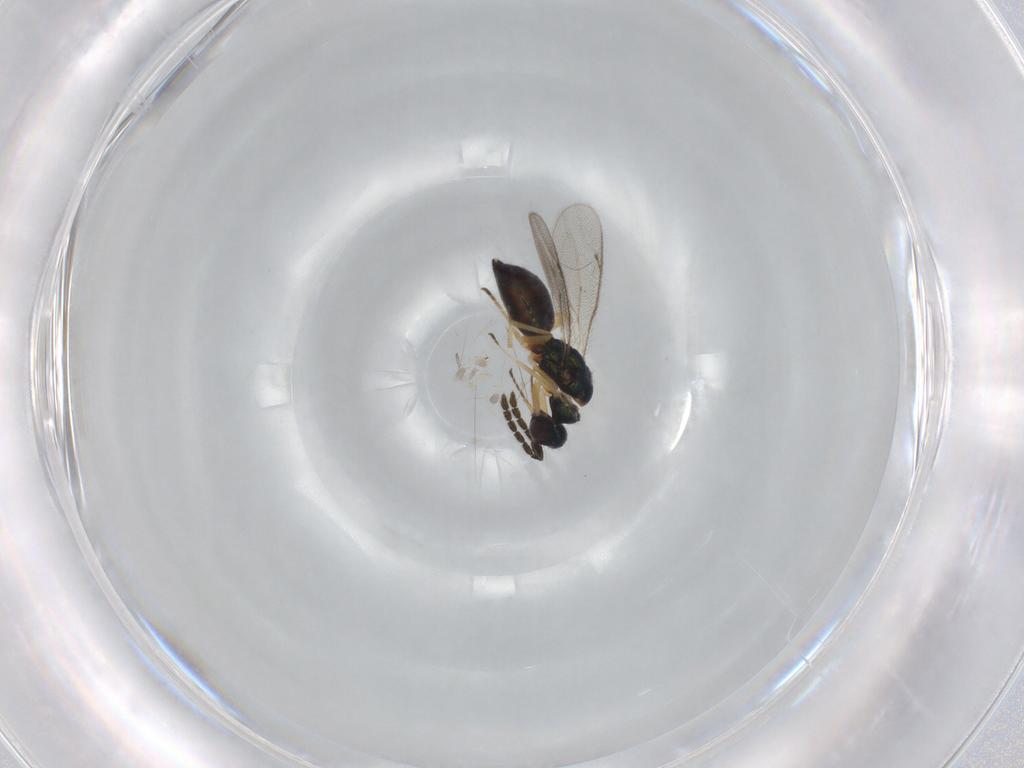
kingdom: Animalia
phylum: Arthropoda
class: Insecta
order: Hymenoptera
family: Eulophidae
